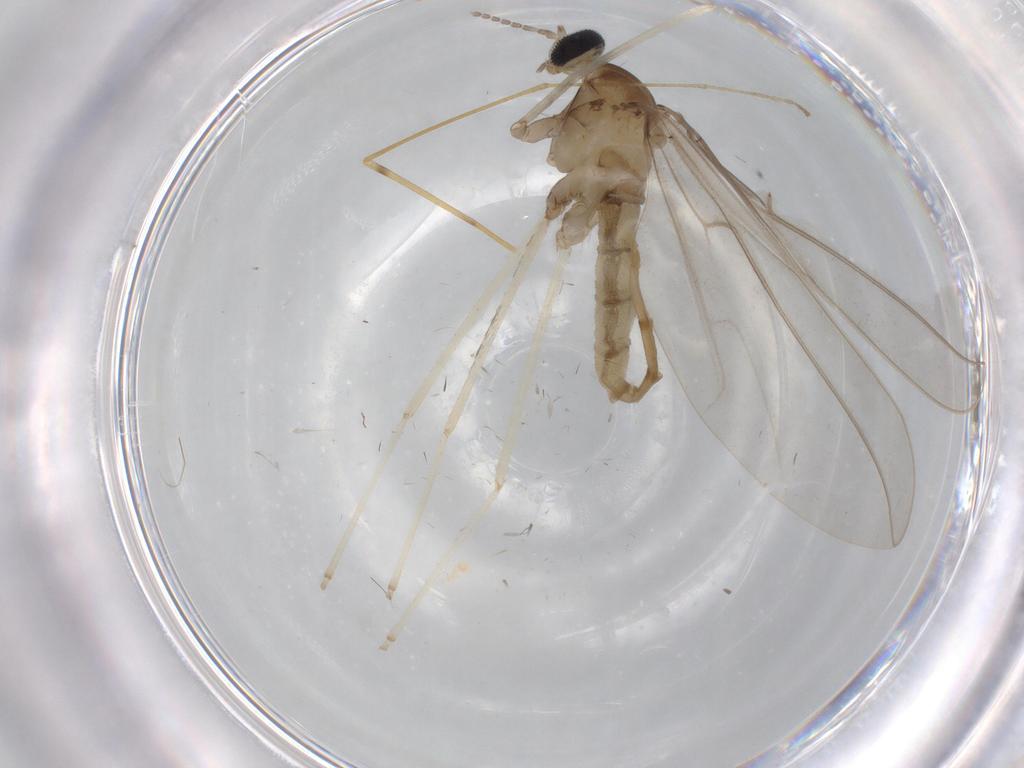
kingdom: Animalia
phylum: Arthropoda
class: Insecta
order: Diptera
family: Cecidomyiidae
